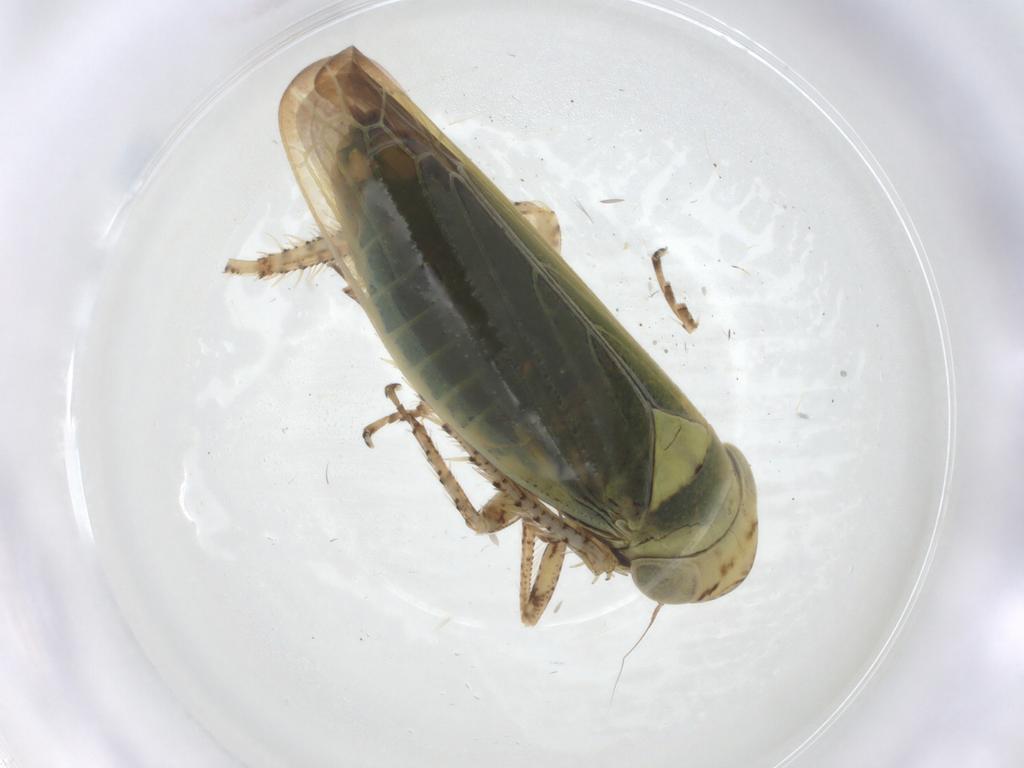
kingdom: Animalia
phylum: Arthropoda
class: Insecta
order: Hemiptera
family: Cicadellidae
